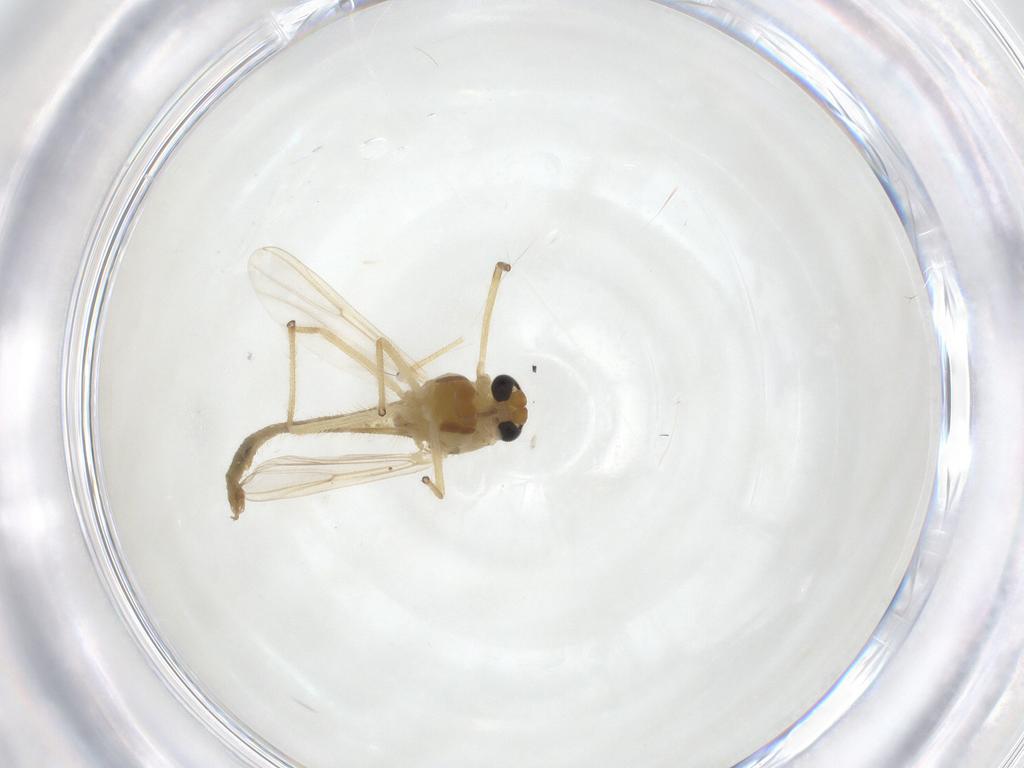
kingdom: Animalia
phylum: Arthropoda
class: Insecta
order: Diptera
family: Chironomidae
